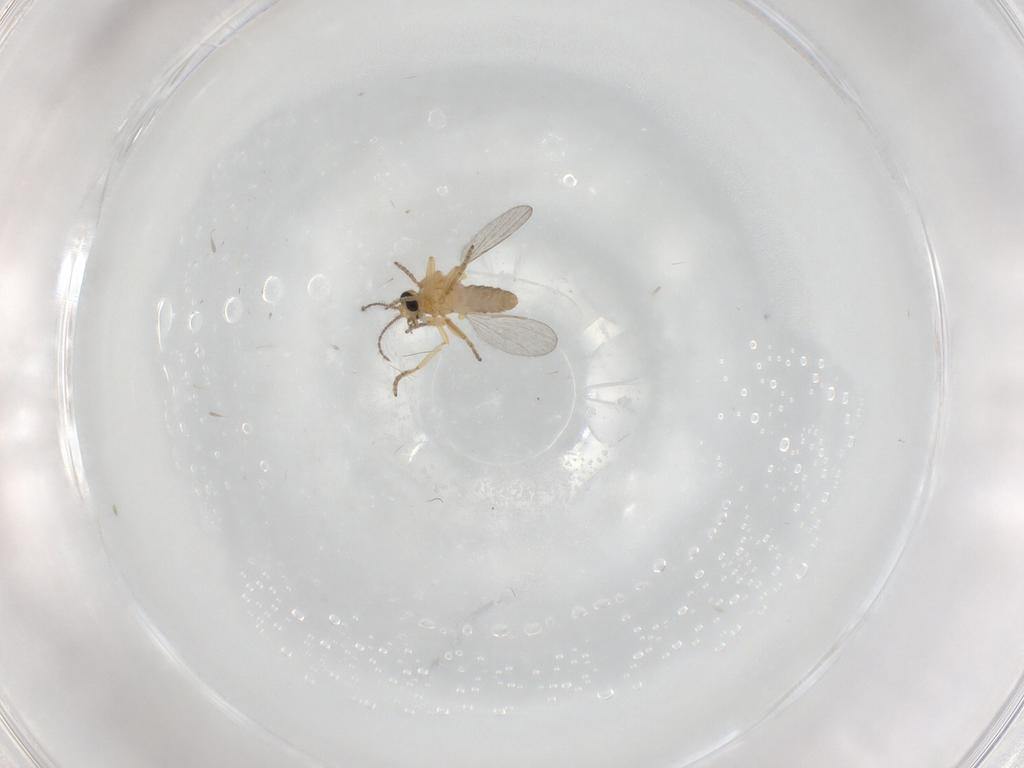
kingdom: Animalia
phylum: Arthropoda
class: Insecta
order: Diptera
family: Ceratopogonidae
